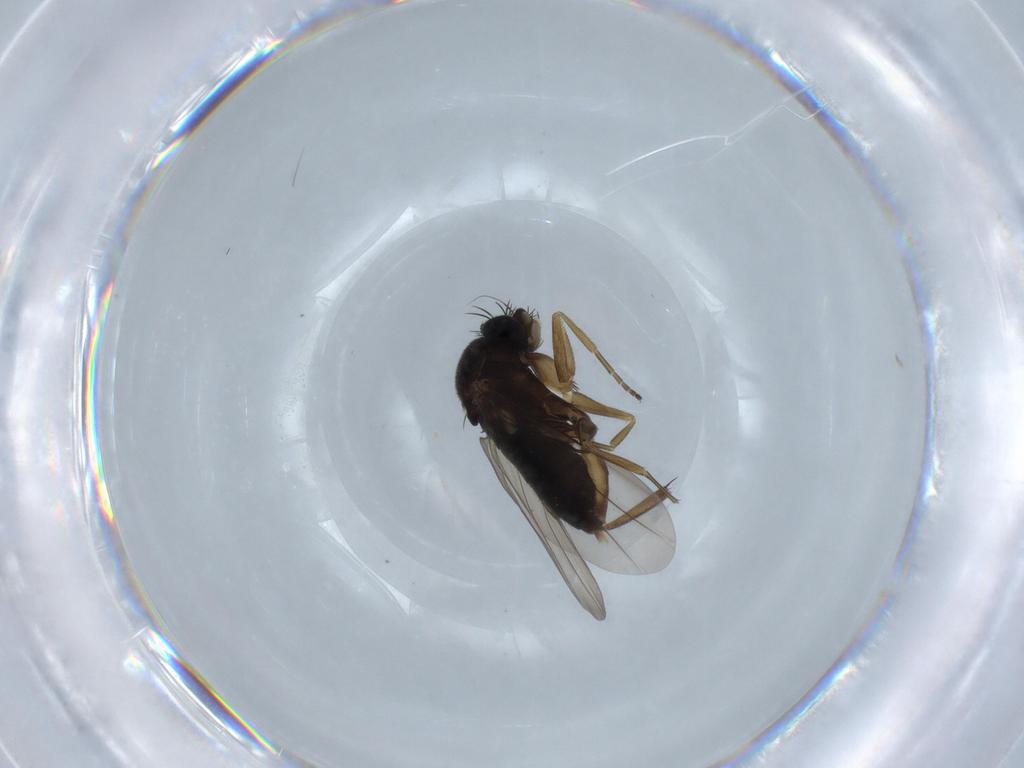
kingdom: Animalia
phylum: Arthropoda
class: Insecta
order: Diptera
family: Phoridae
